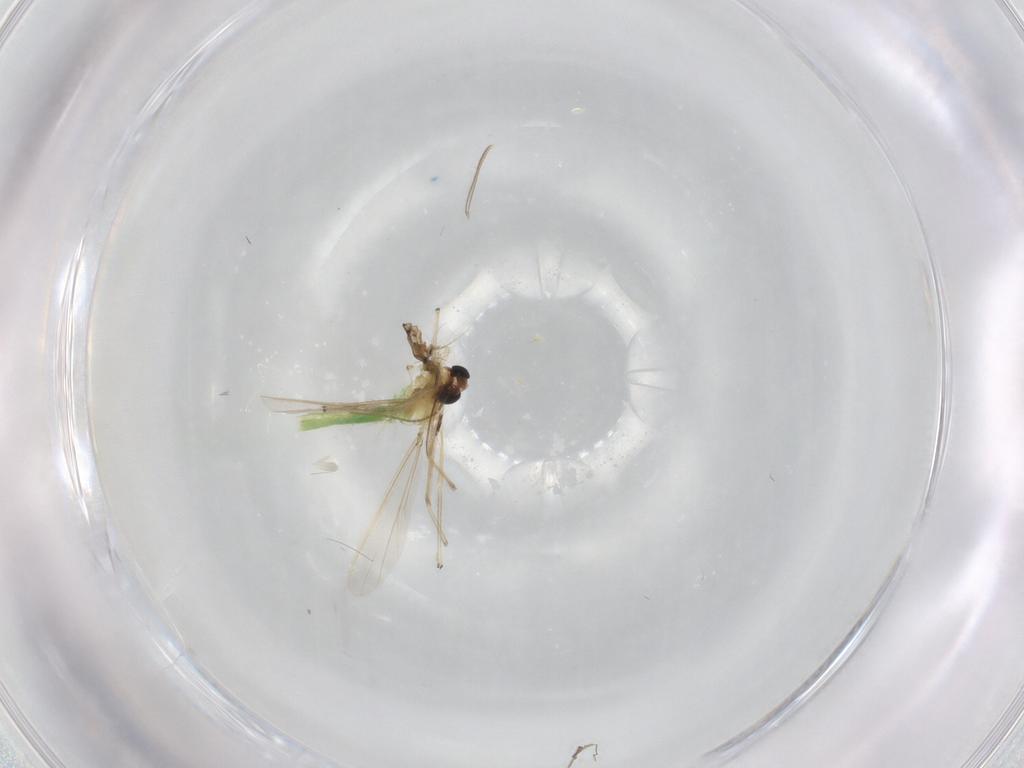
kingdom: Animalia
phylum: Arthropoda
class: Insecta
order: Diptera
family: Chironomidae
